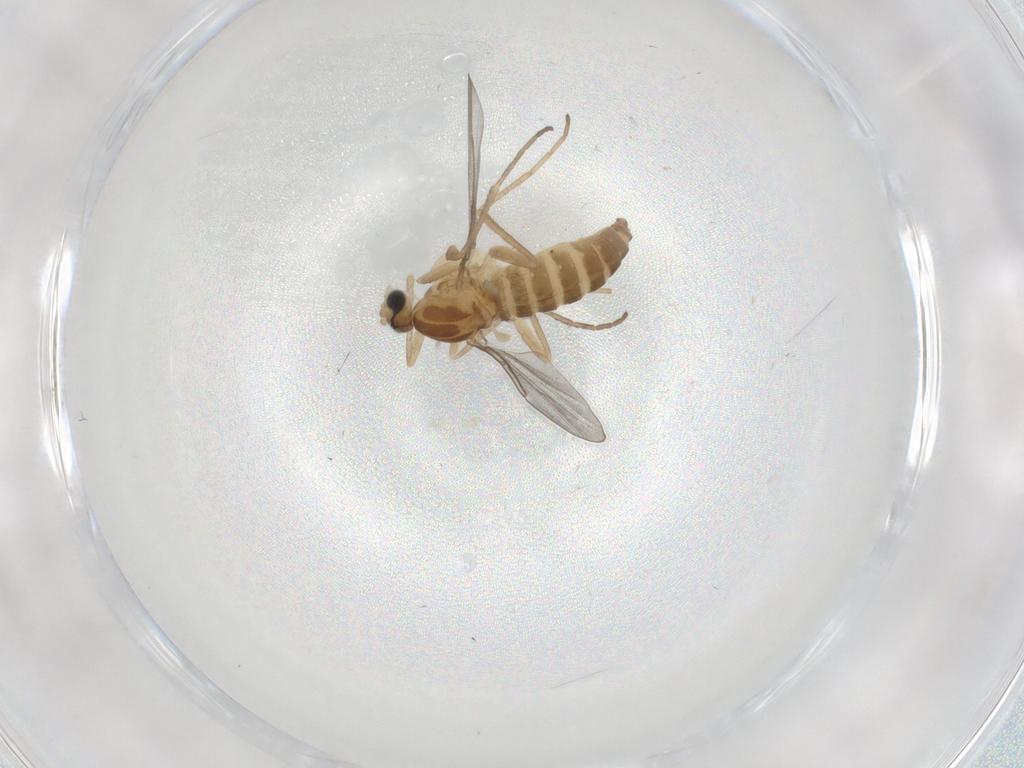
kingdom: Animalia
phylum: Arthropoda
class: Insecta
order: Diptera
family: Cecidomyiidae
